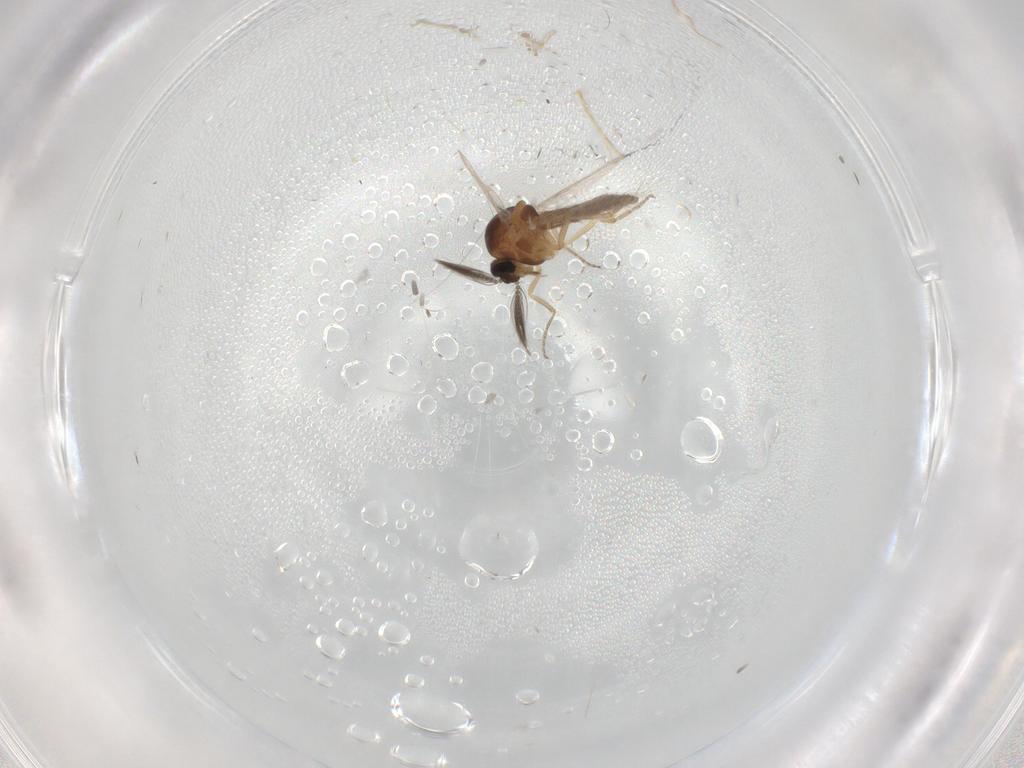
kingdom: Animalia
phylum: Arthropoda
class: Insecta
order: Diptera
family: Ceratopogonidae
